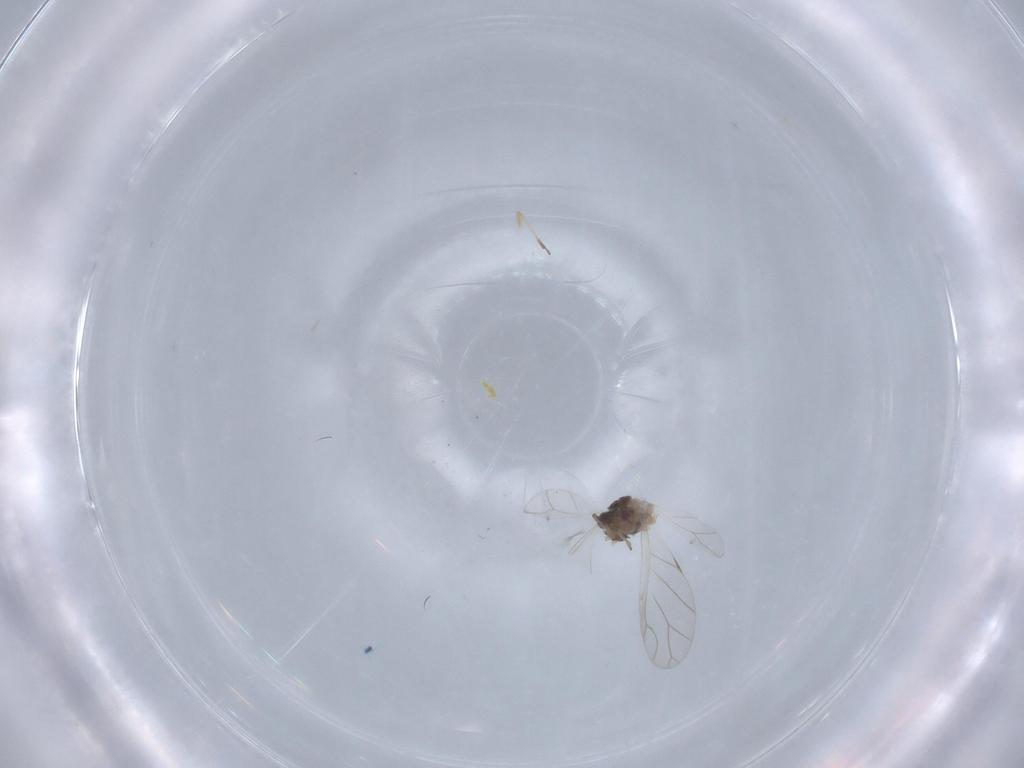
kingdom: Animalia
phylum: Arthropoda
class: Insecta
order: Hemiptera
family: Aphididae
